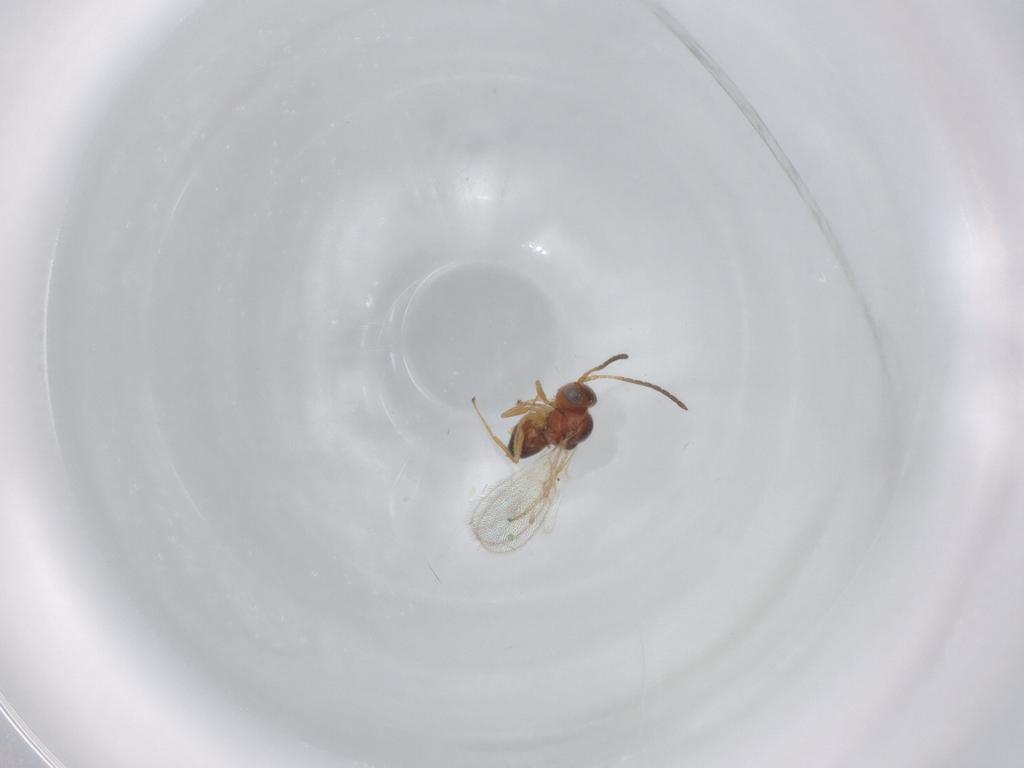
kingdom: Animalia
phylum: Arthropoda
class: Insecta
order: Hymenoptera
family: Figitidae
